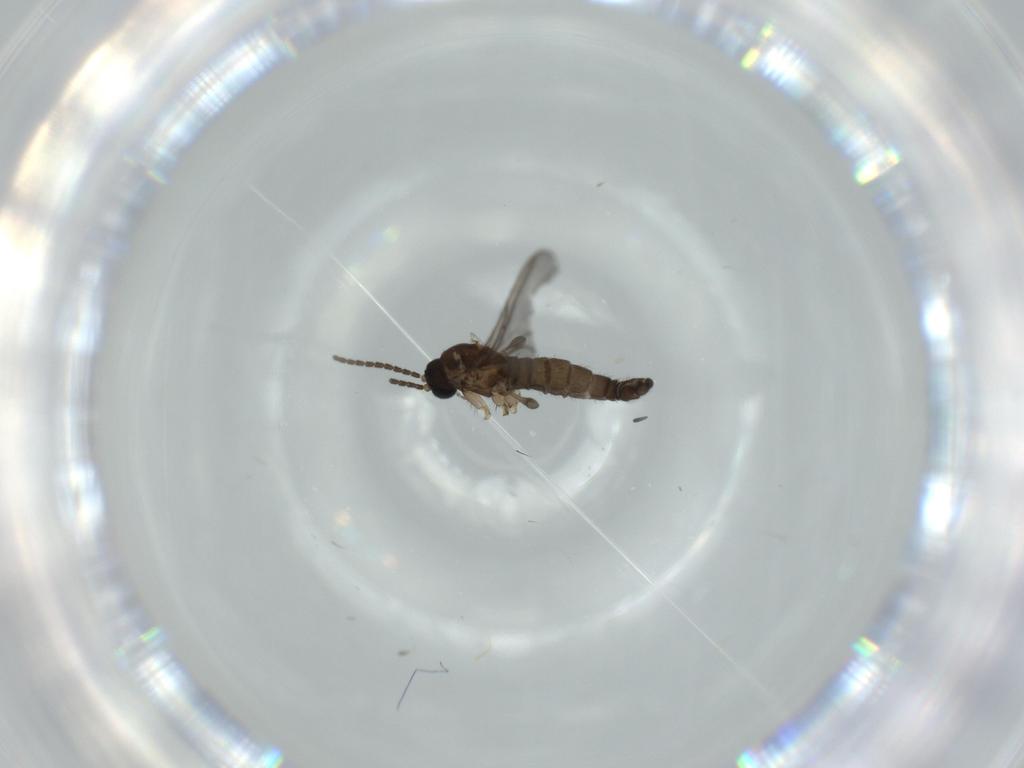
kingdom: Animalia
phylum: Arthropoda
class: Insecta
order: Diptera
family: Sciaridae
